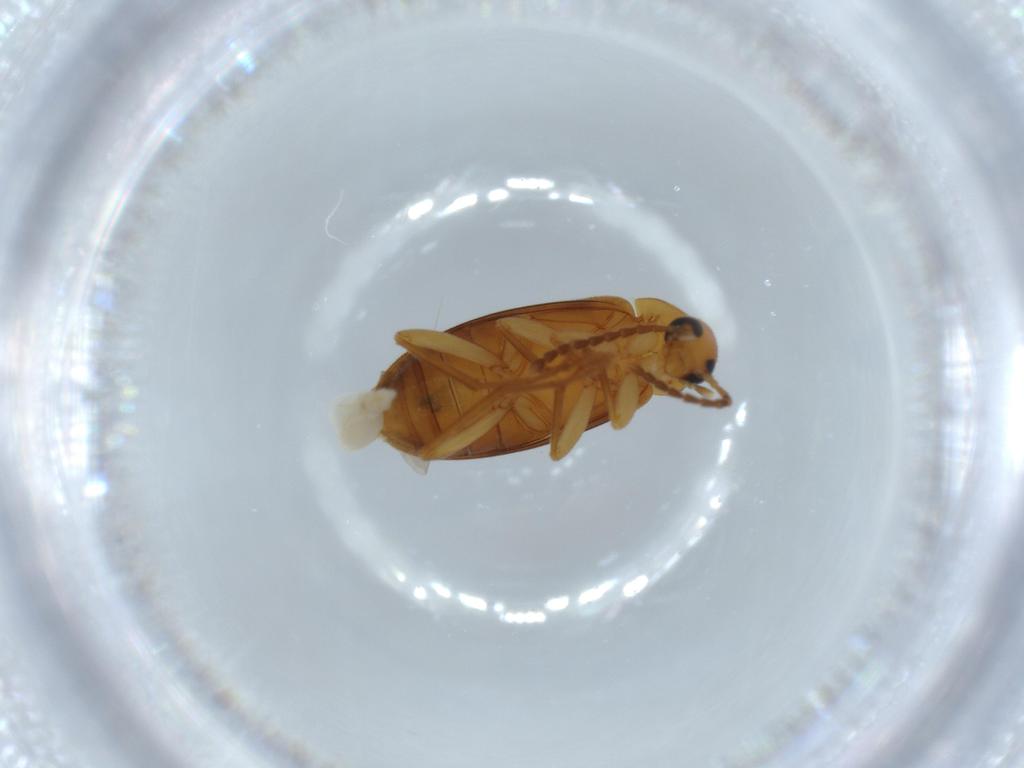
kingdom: Animalia
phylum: Arthropoda
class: Insecta
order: Coleoptera
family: Scraptiidae
